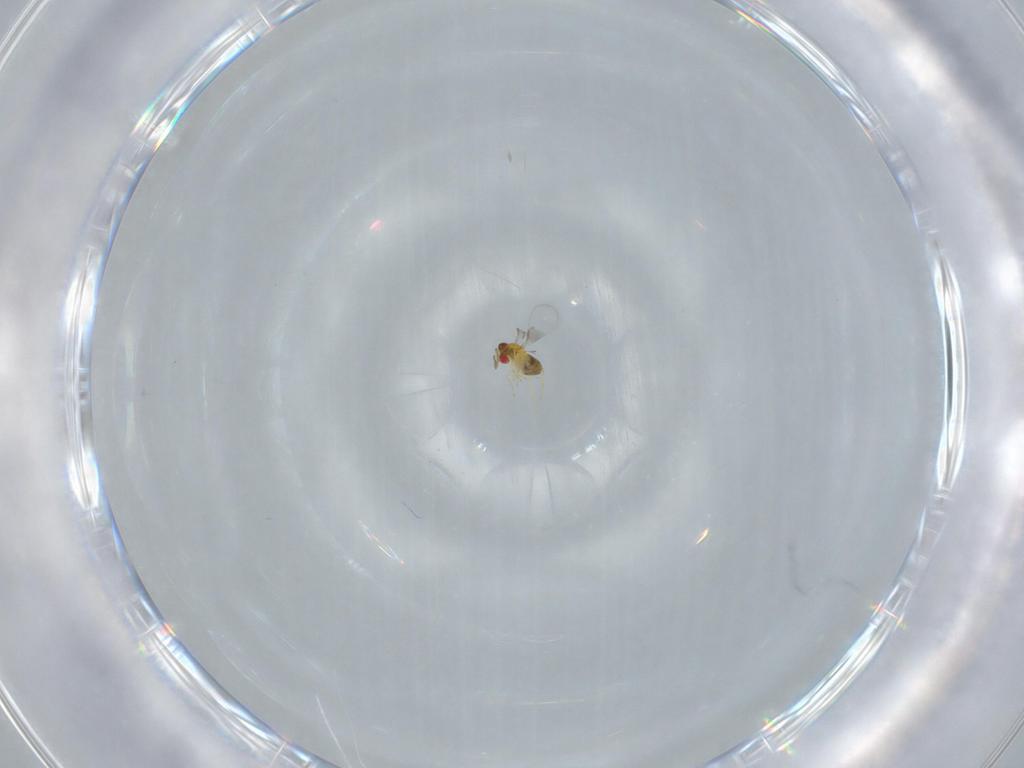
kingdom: Animalia
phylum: Arthropoda
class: Insecta
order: Hymenoptera
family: Trichogrammatidae
